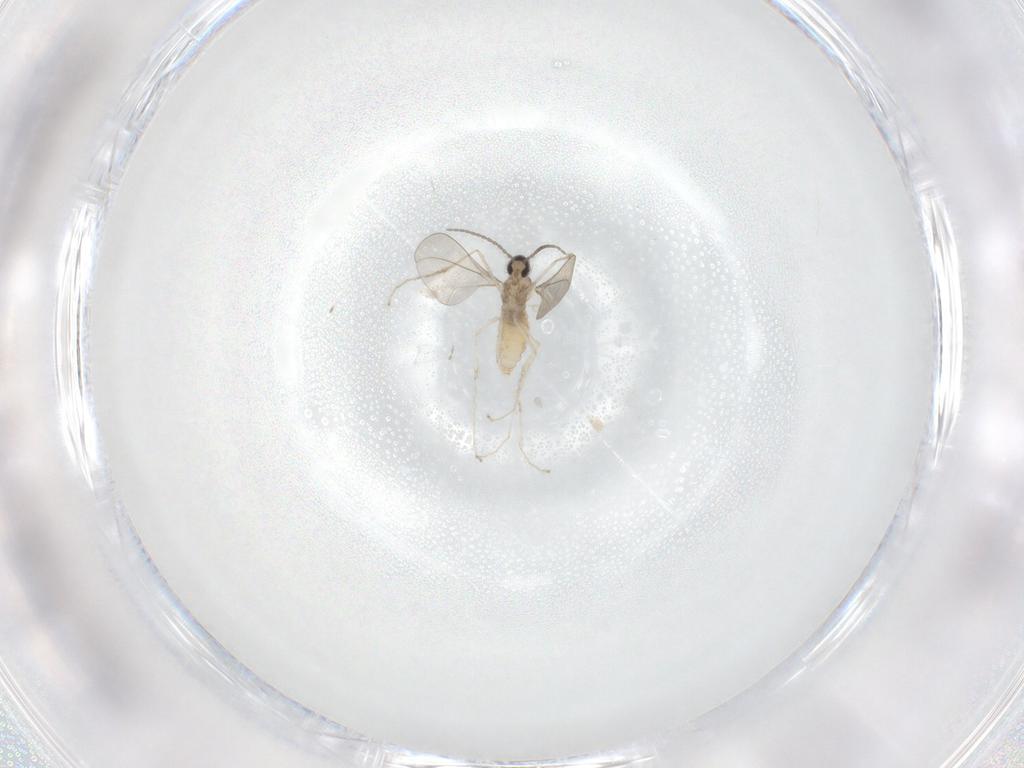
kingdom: Animalia
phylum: Arthropoda
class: Insecta
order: Diptera
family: Cecidomyiidae
